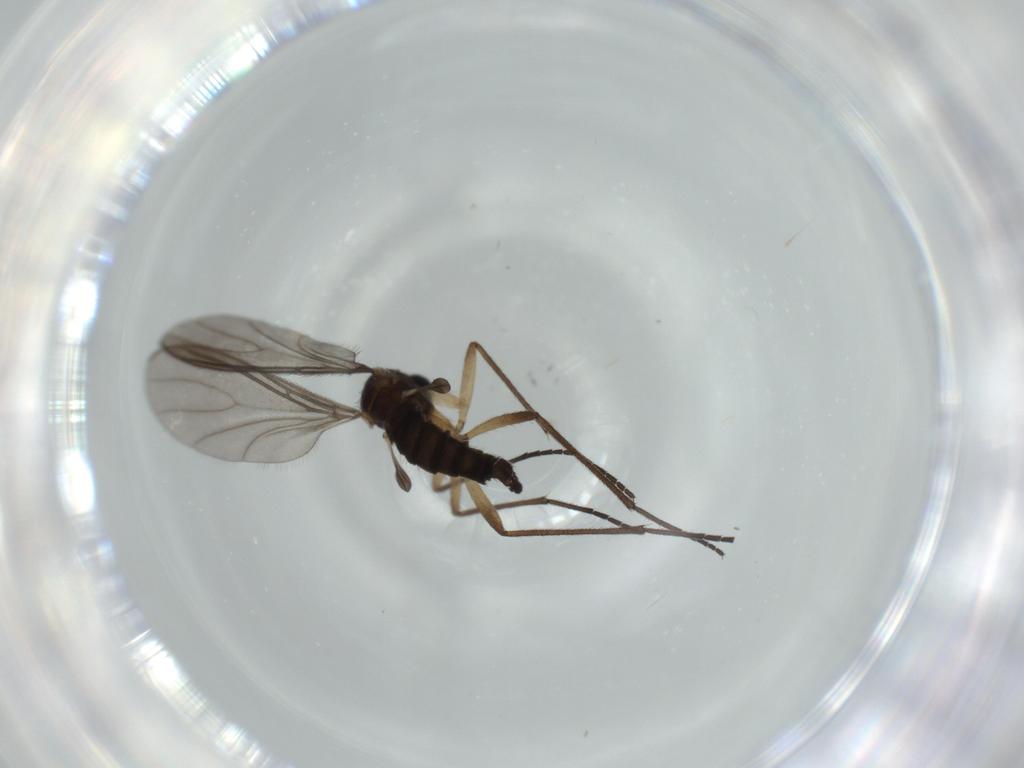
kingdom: Animalia
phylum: Arthropoda
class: Insecta
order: Diptera
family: Sciaridae
